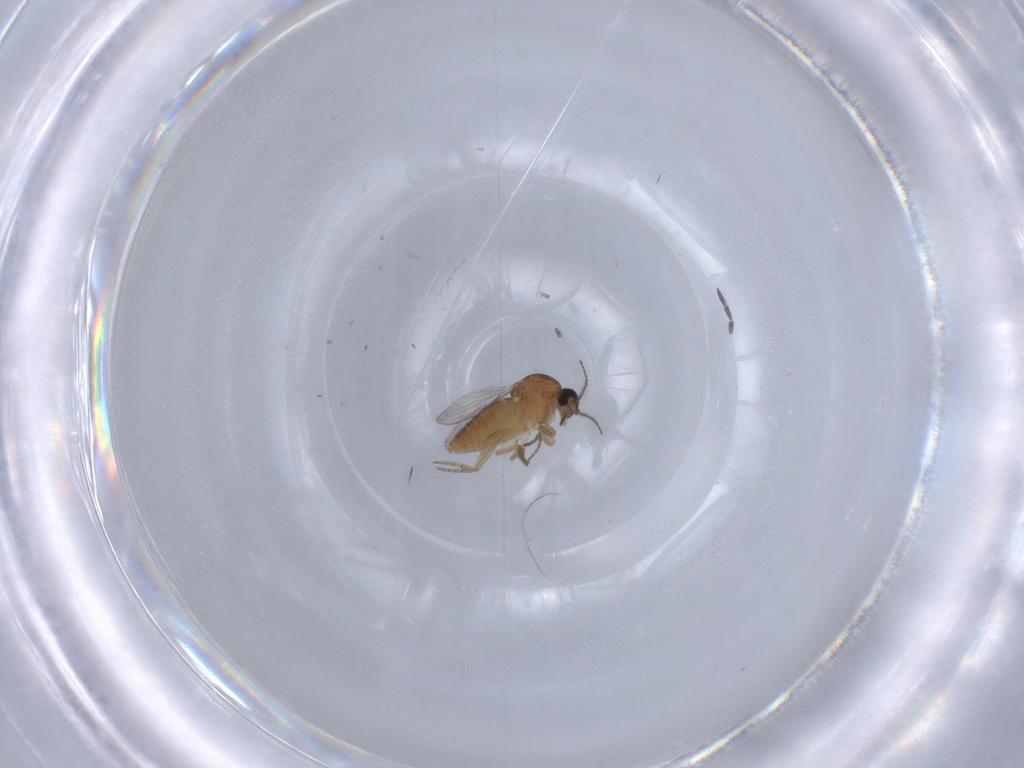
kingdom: Animalia
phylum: Arthropoda
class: Insecta
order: Diptera
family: Ceratopogonidae
